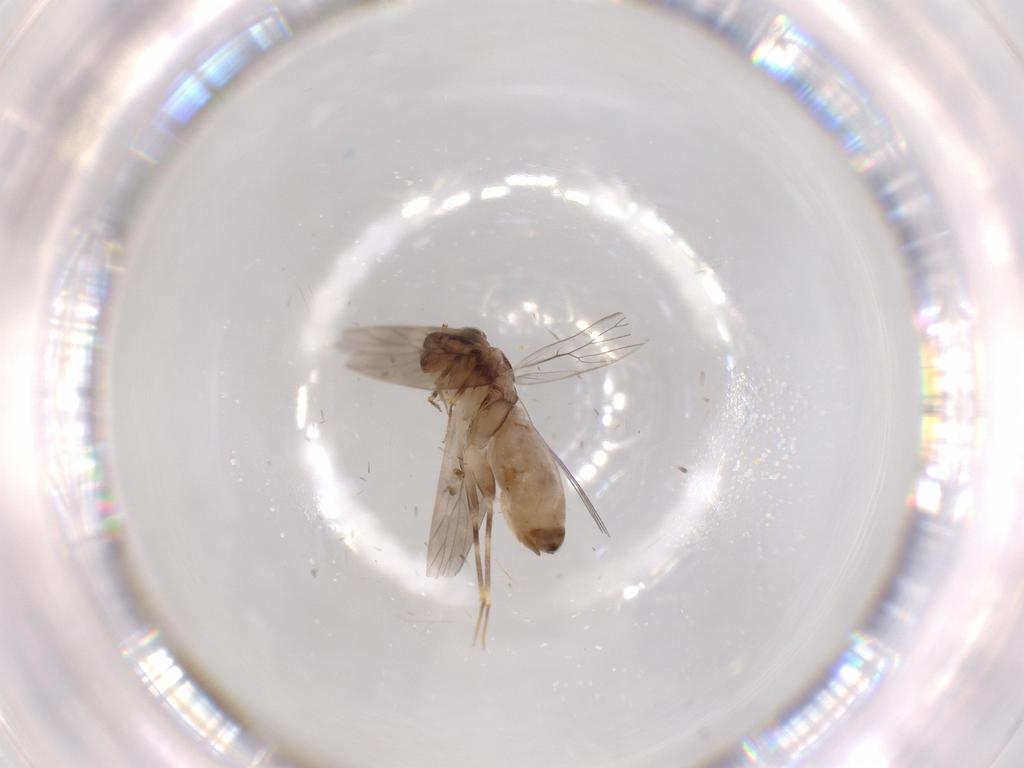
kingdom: Animalia
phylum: Arthropoda
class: Insecta
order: Psocodea
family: Lepidopsocidae
